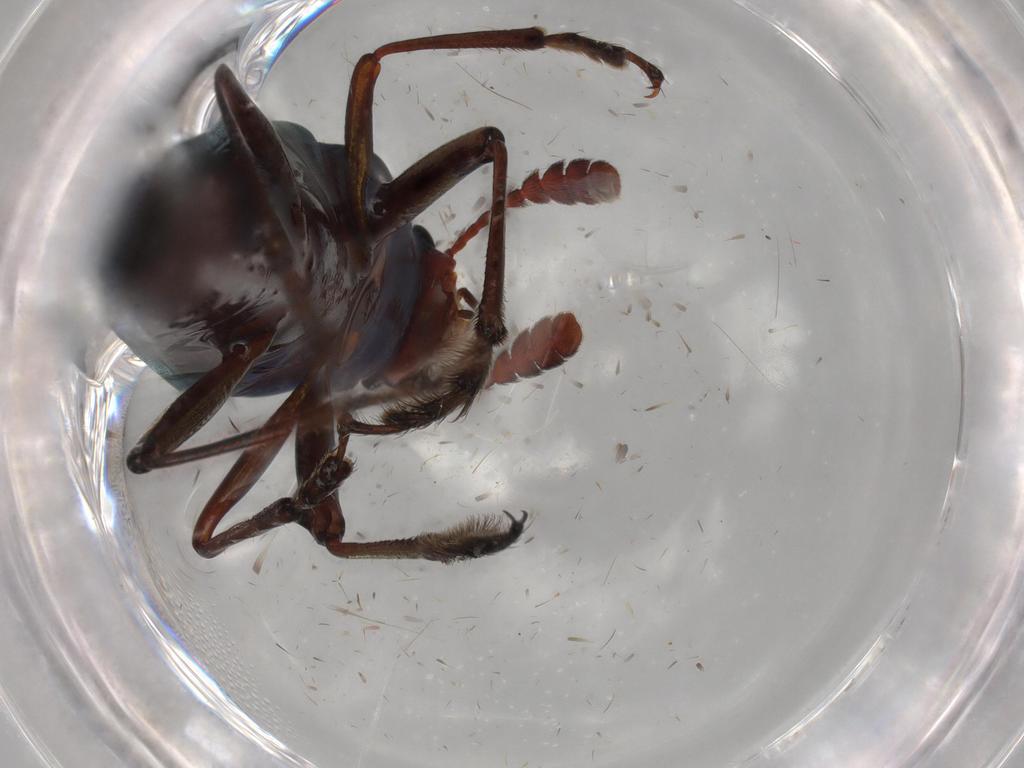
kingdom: Animalia
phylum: Arthropoda
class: Insecta
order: Coleoptera
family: Erotylidae
